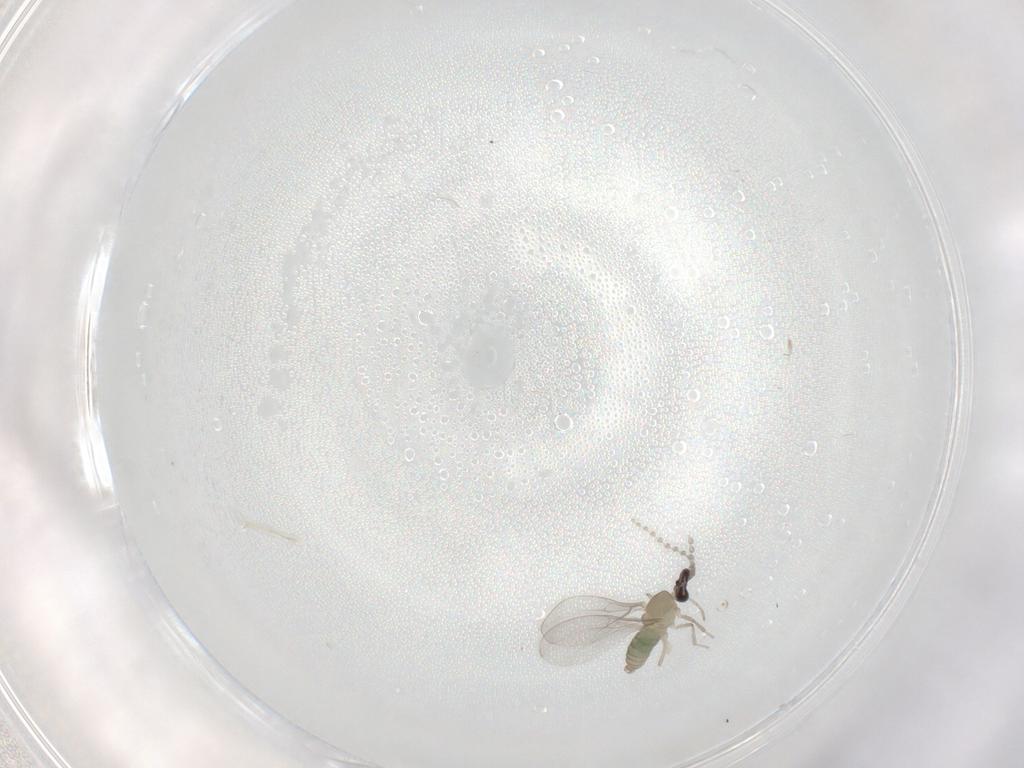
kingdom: Animalia
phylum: Arthropoda
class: Insecta
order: Diptera
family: Cecidomyiidae
